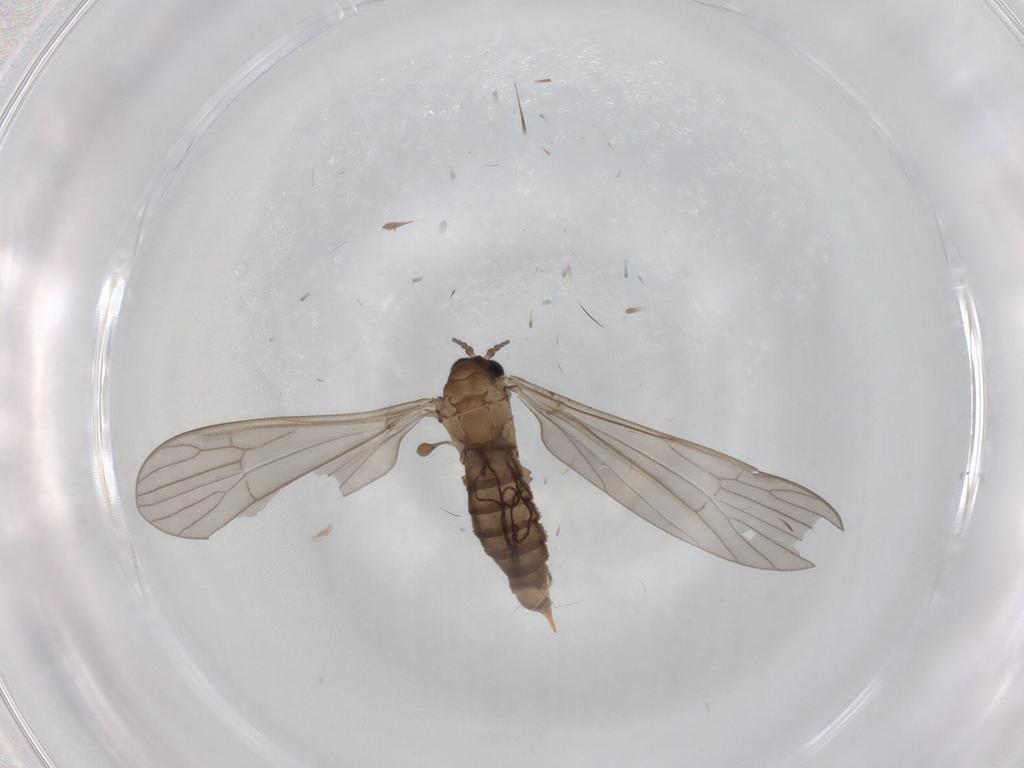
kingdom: Animalia
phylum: Arthropoda
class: Insecta
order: Diptera
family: Cecidomyiidae
